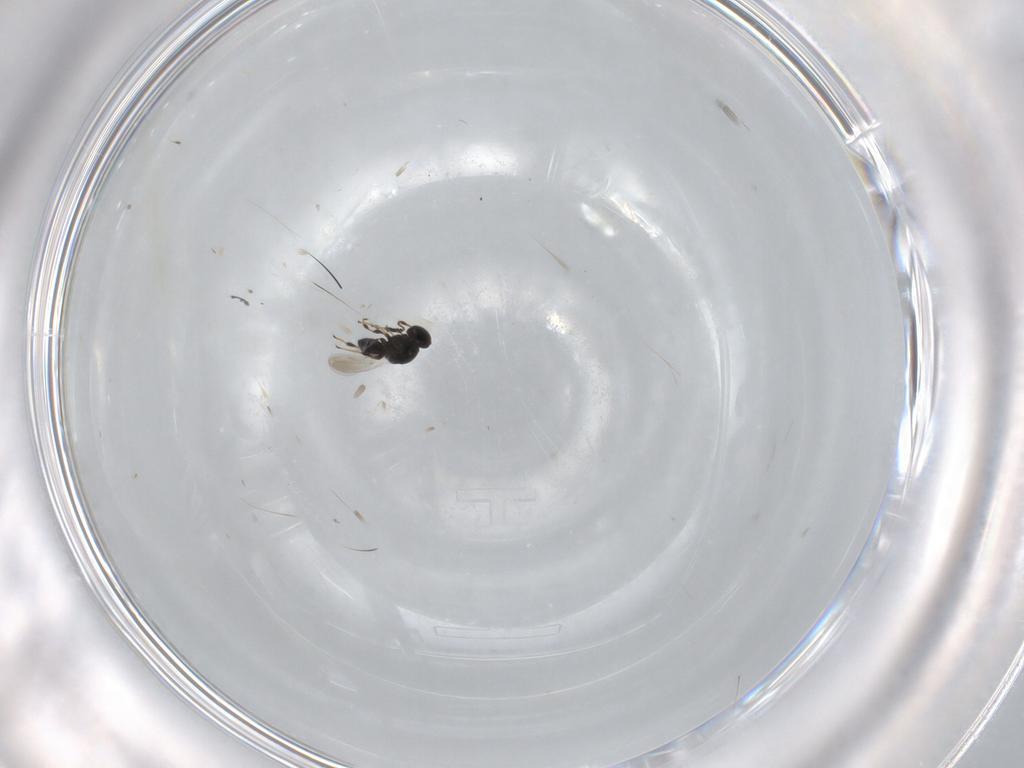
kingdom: Animalia
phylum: Arthropoda
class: Insecta
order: Hymenoptera
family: Platygastridae
